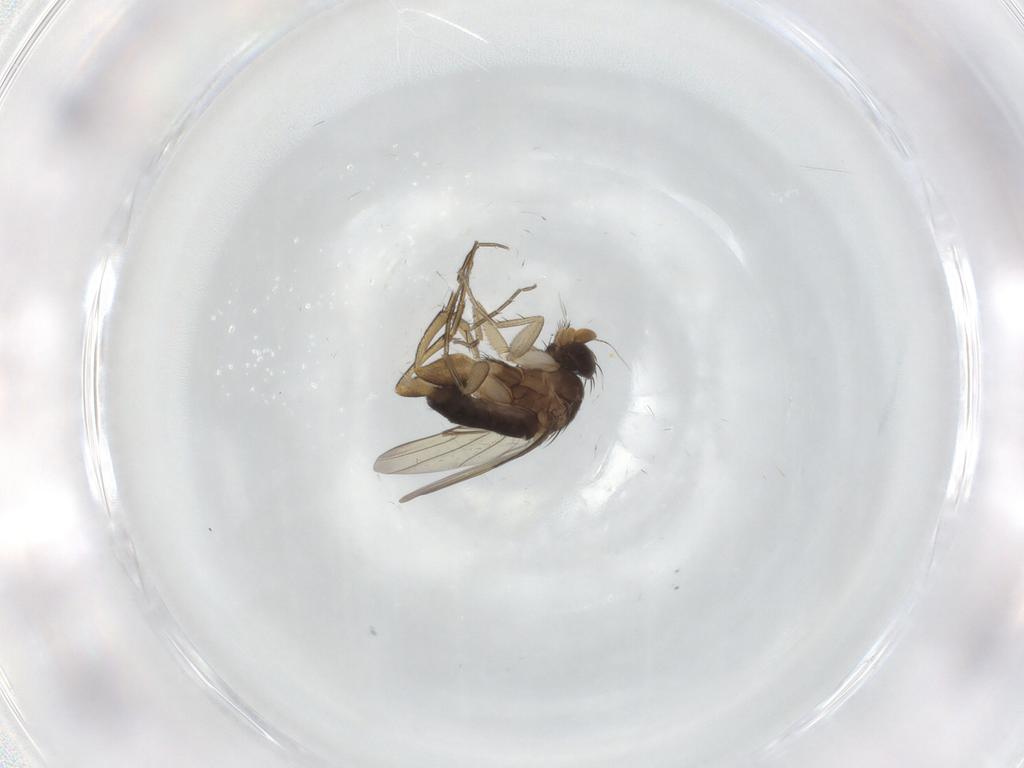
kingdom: Animalia
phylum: Arthropoda
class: Insecta
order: Diptera
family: Phoridae
